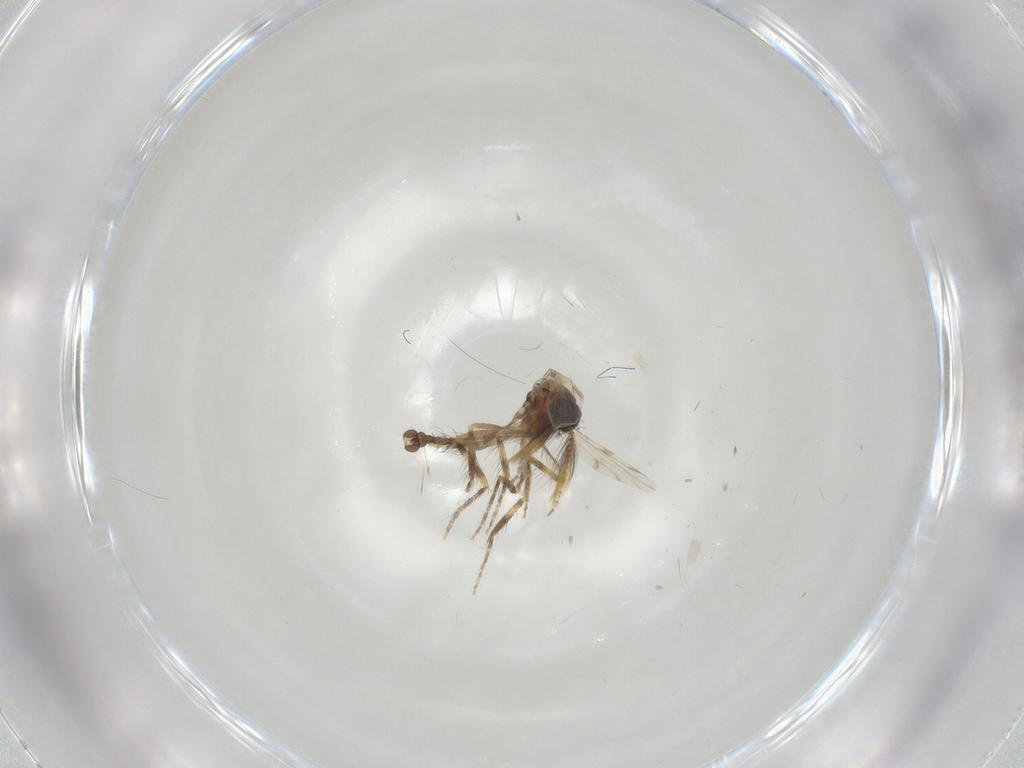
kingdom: Animalia
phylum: Arthropoda
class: Insecta
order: Diptera
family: Ceratopogonidae
